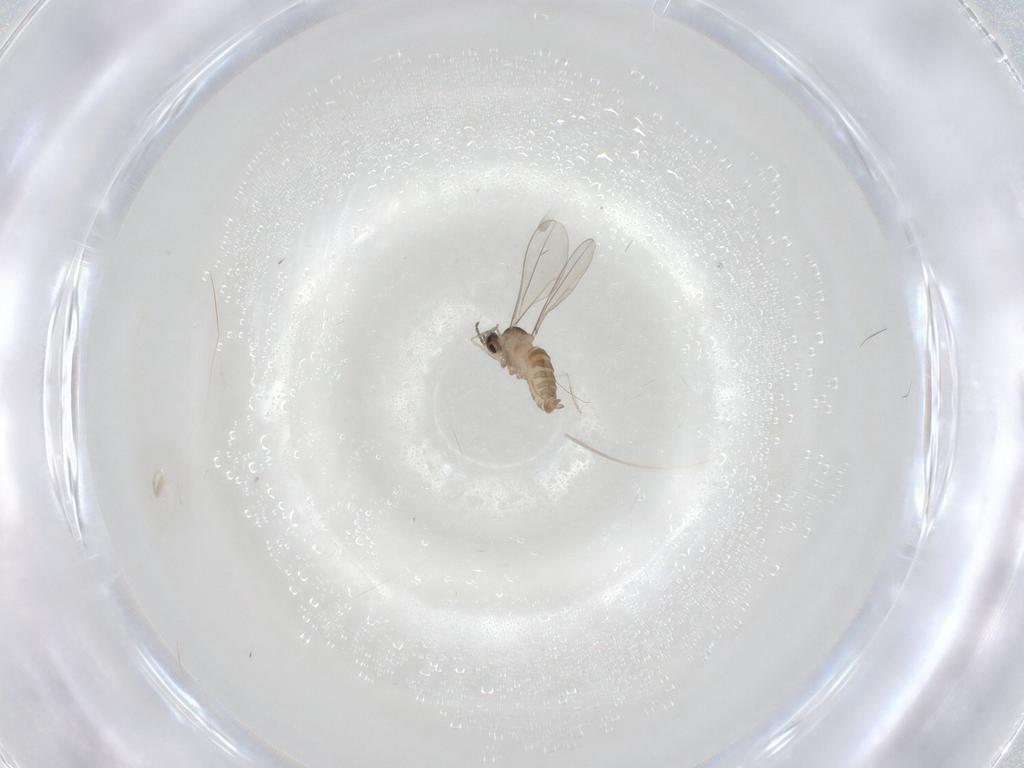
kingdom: Animalia
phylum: Arthropoda
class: Insecta
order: Diptera
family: Cecidomyiidae
